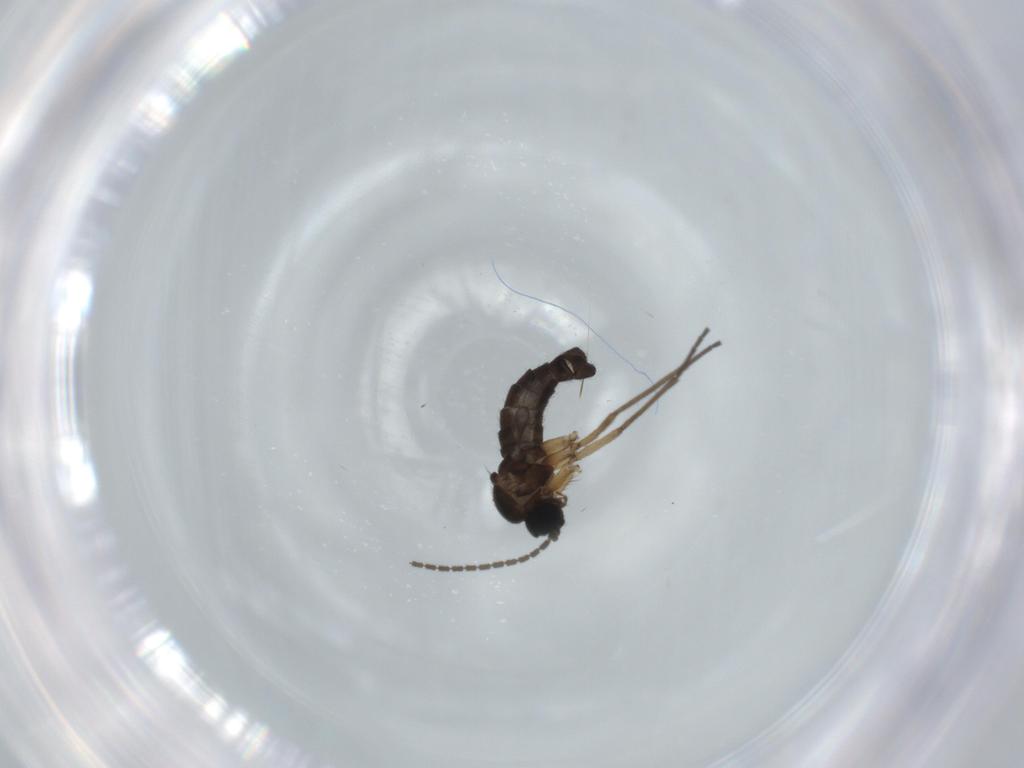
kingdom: Animalia
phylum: Arthropoda
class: Insecta
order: Diptera
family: Sciaridae
